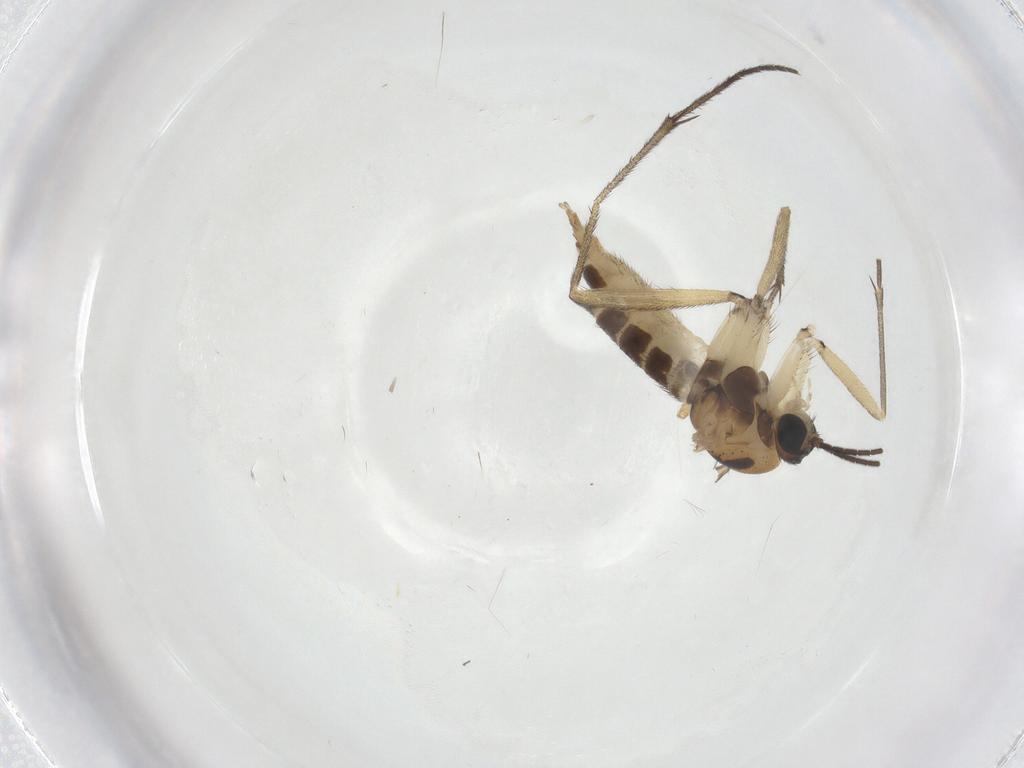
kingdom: Animalia
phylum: Arthropoda
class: Insecta
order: Diptera
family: Sciaridae
